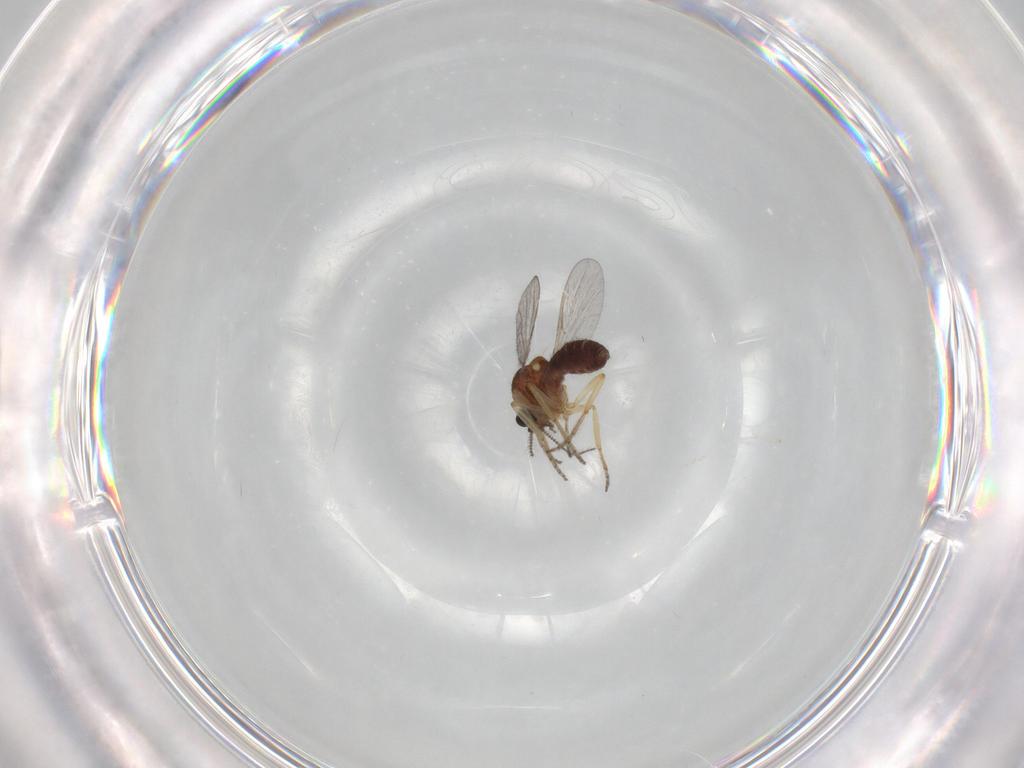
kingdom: Animalia
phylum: Arthropoda
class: Insecta
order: Diptera
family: Ceratopogonidae
